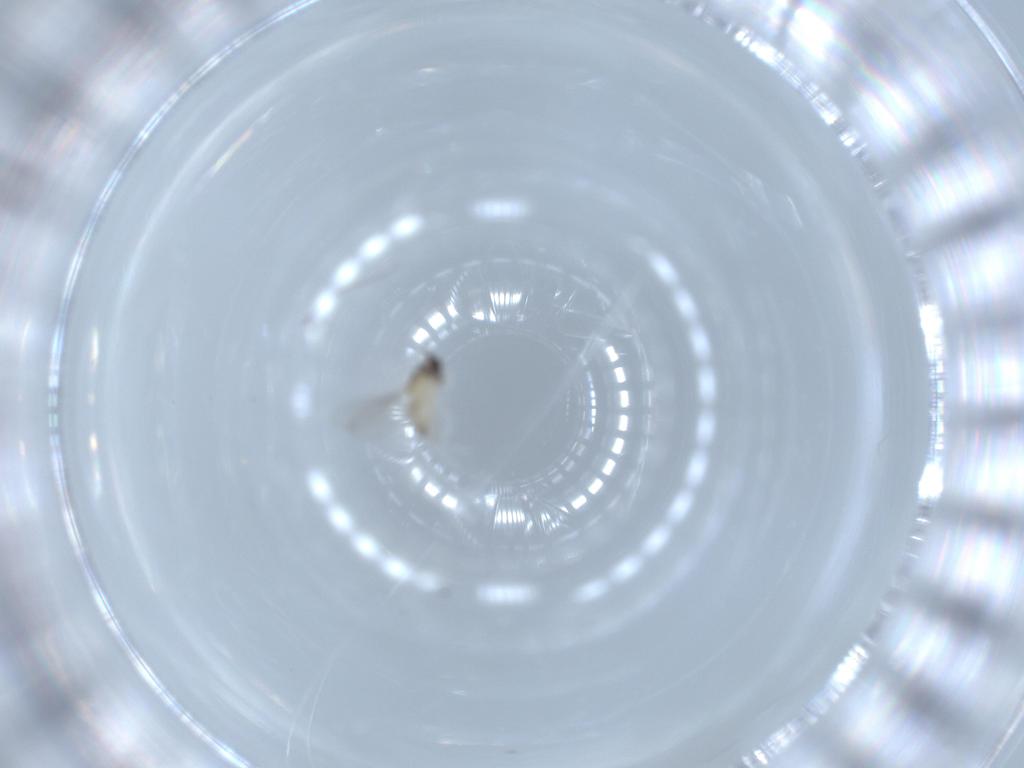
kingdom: Animalia
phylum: Arthropoda
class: Insecta
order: Diptera
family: Cecidomyiidae
